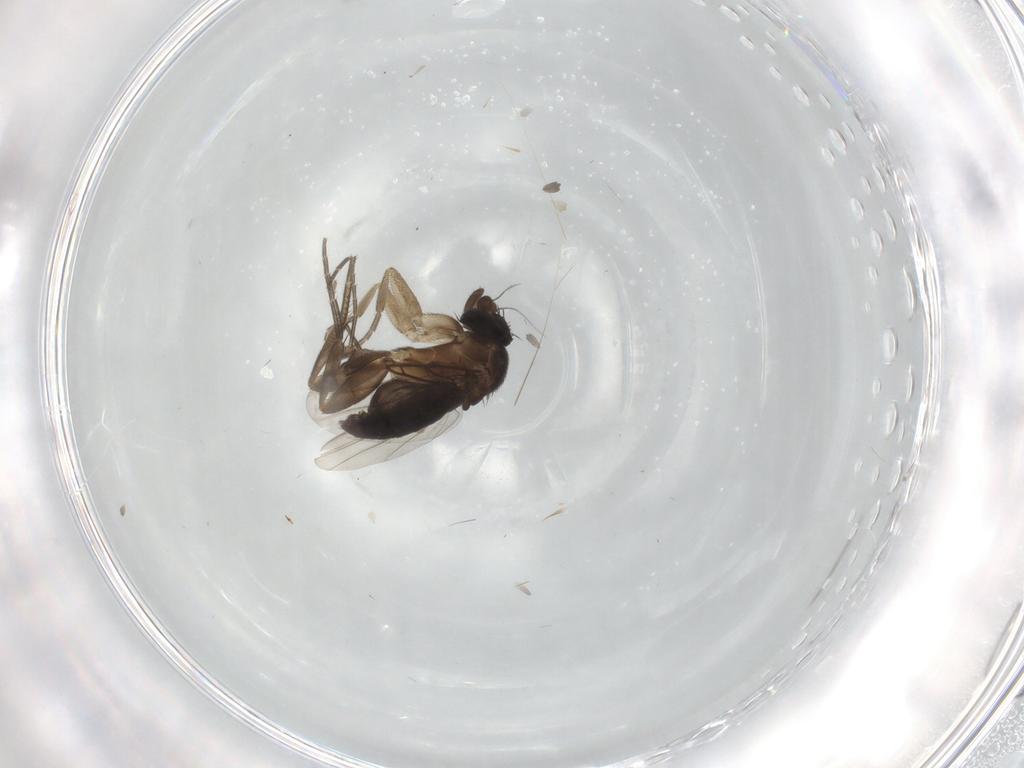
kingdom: Animalia
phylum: Arthropoda
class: Insecta
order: Diptera
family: Phoridae
